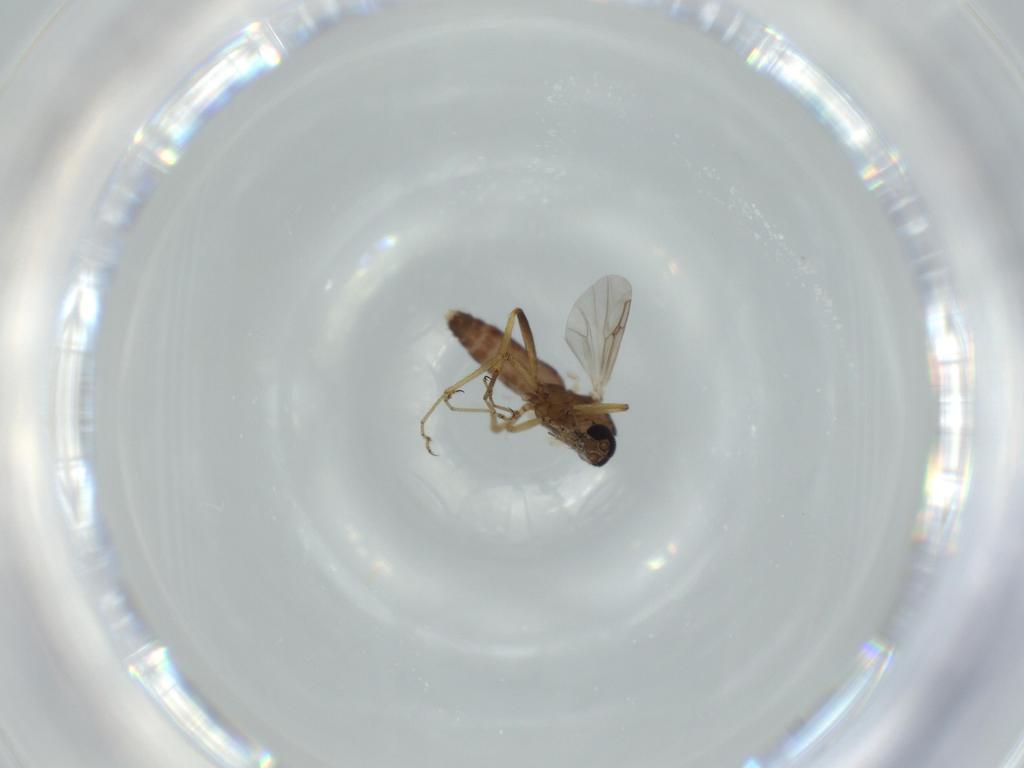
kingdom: Animalia
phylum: Arthropoda
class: Insecta
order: Diptera
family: Ceratopogonidae
